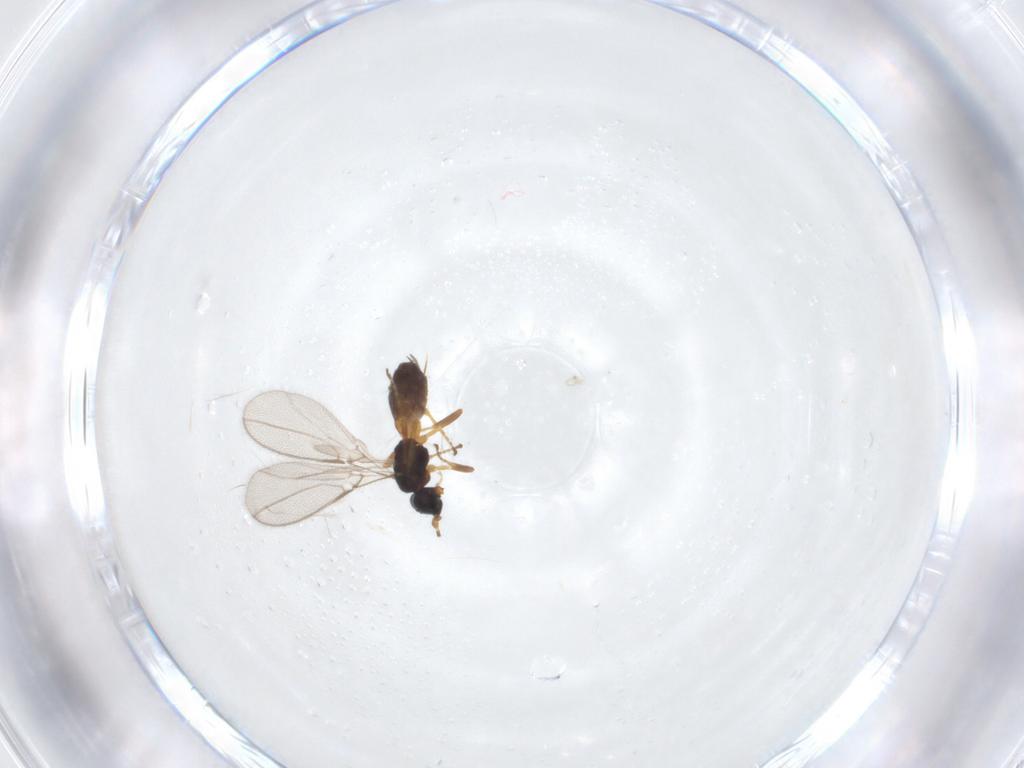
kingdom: Animalia
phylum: Arthropoda
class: Insecta
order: Hymenoptera
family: Braconidae
